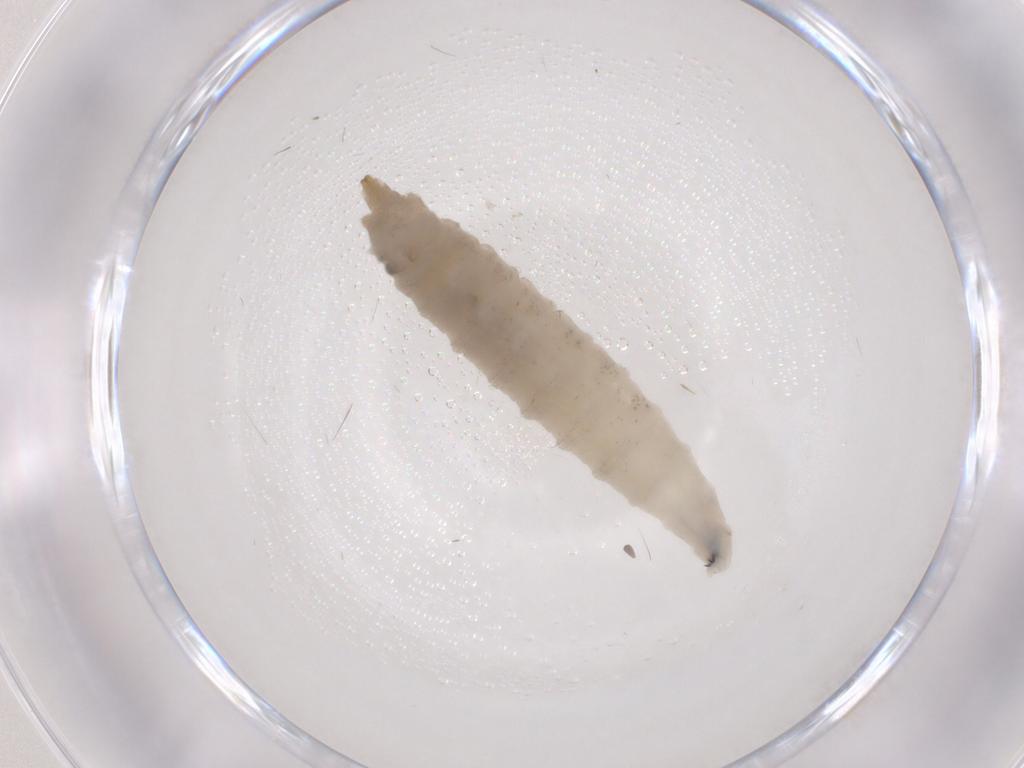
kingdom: Animalia
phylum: Arthropoda
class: Insecta
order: Diptera
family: Drosophilidae
